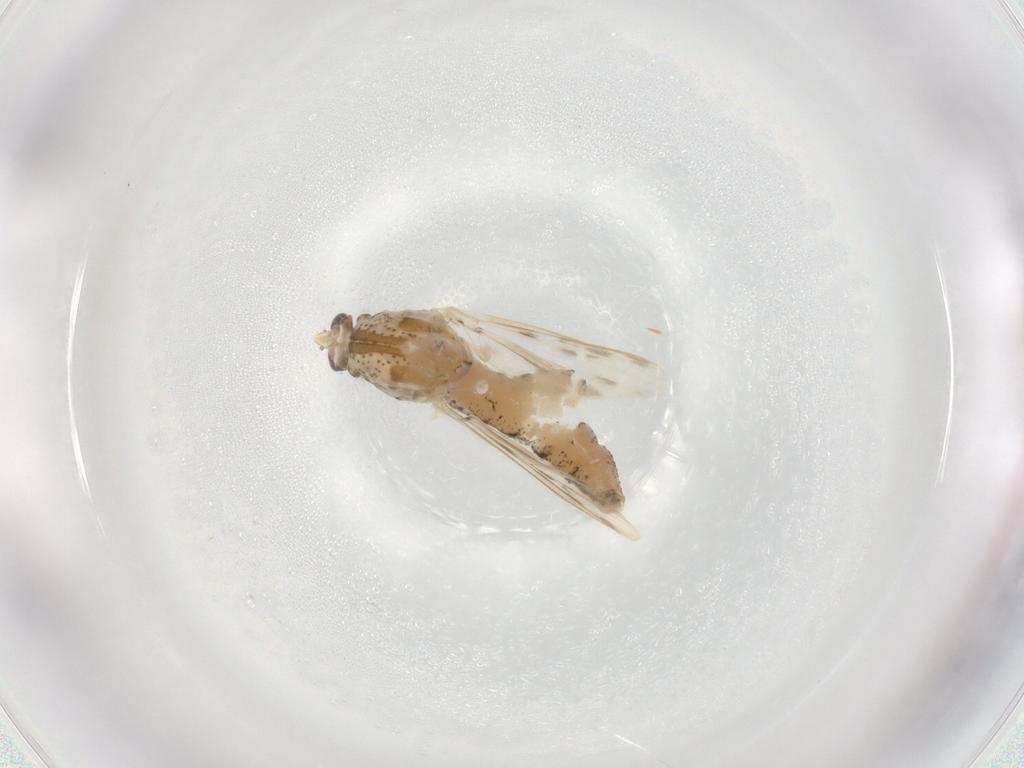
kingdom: Animalia
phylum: Arthropoda
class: Insecta
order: Diptera
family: Chaoboridae
